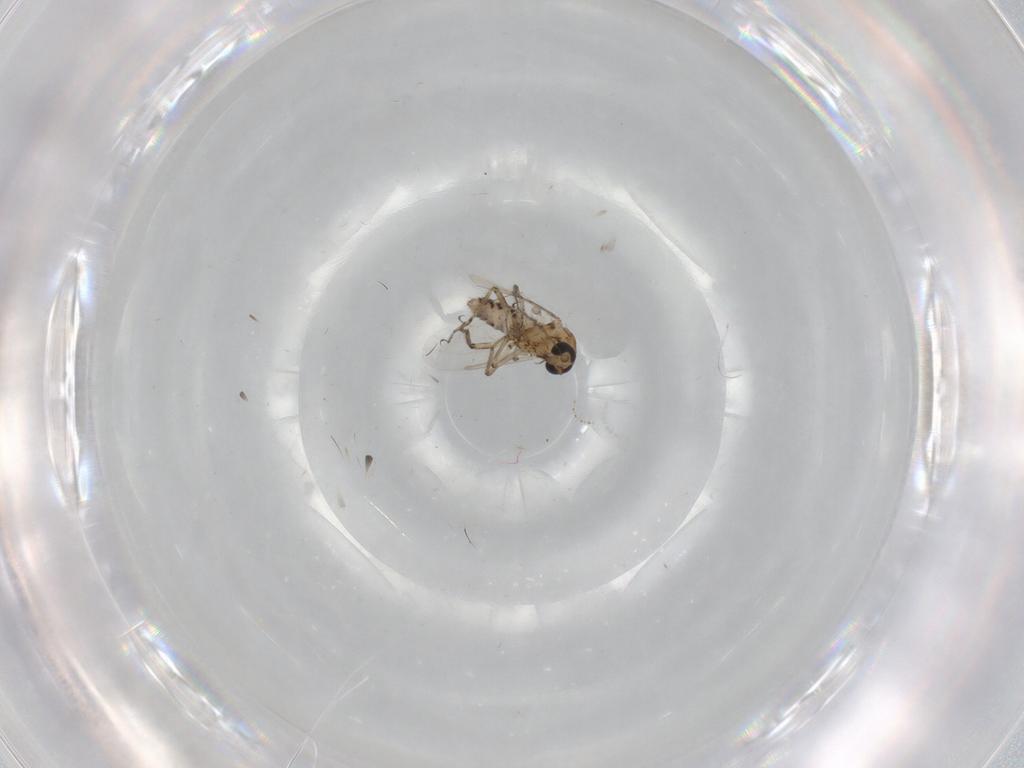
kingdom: Animalia
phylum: Arthropoda
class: Insecta
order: Diptera
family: Ceratopogonidae
